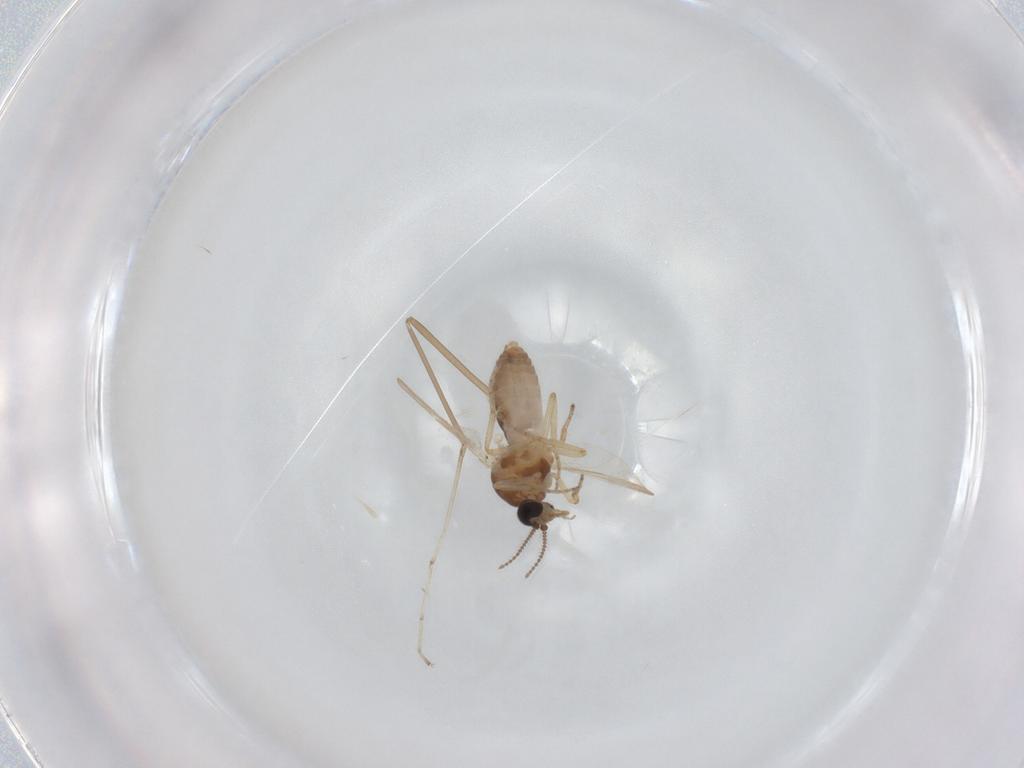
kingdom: Animalia
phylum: Arthropoda
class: Insecta
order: Diptera
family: Ceratopogonidae
